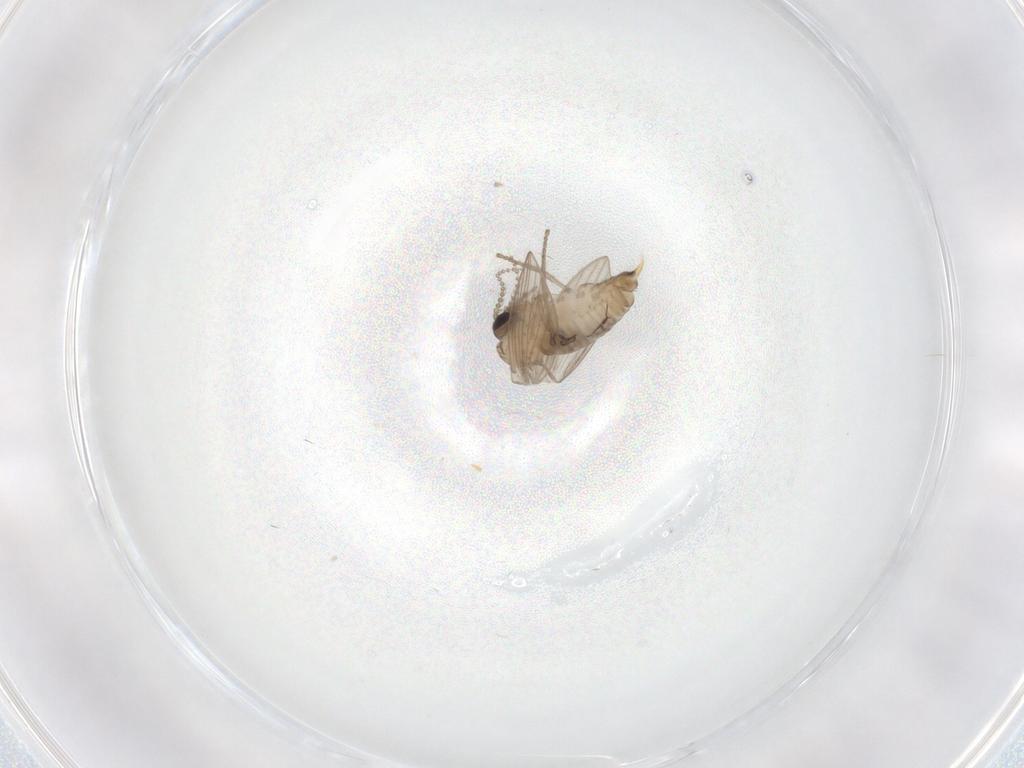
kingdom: Animalia
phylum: Arthropoda
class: Insecta
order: Diptera
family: Psychodidae
